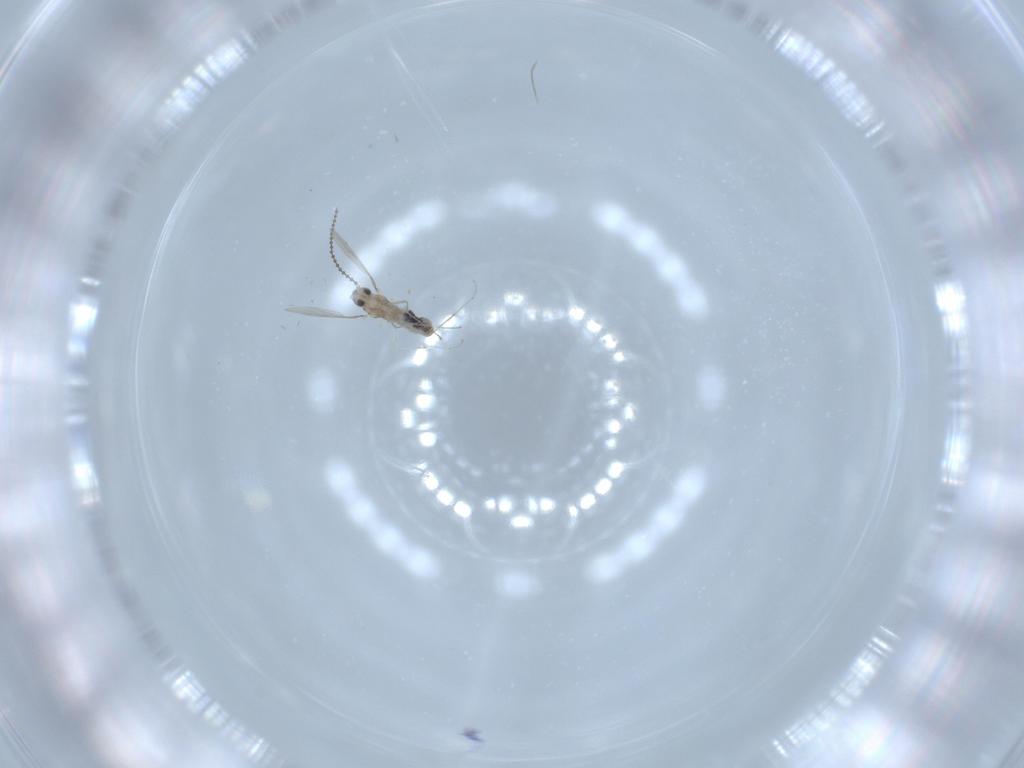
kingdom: Animalia
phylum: Arthropoda
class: Insecta
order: Diptera
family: Cecidomyiidae
